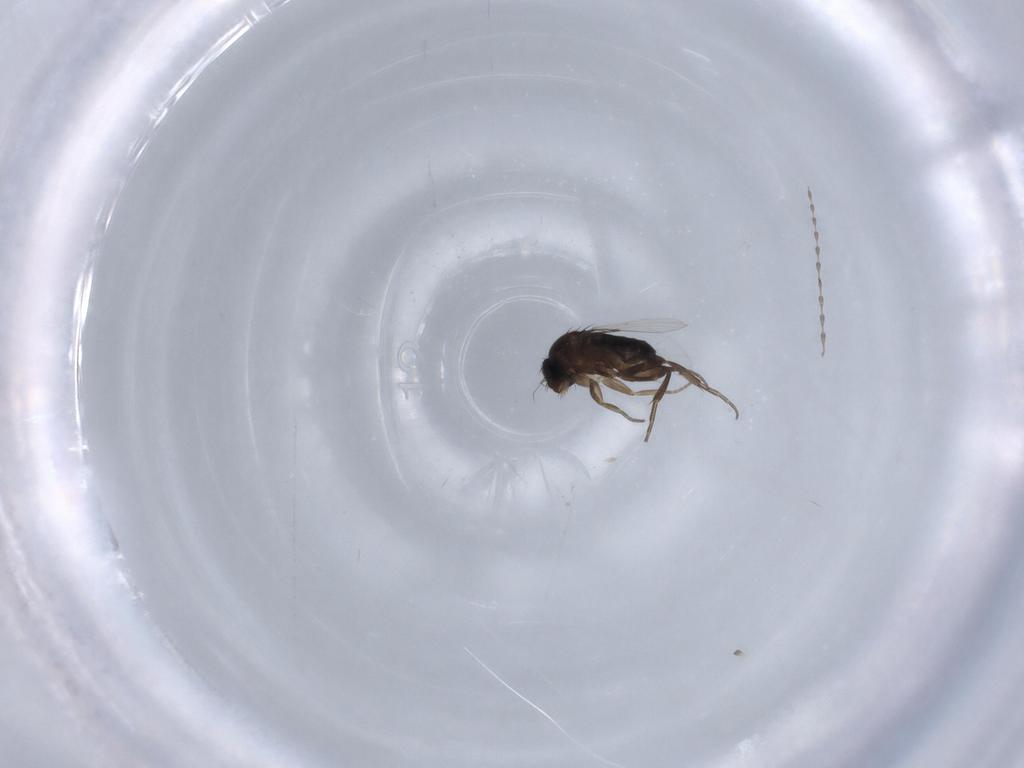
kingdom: Animalia
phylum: Arthropoda
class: Insecta
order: Diptera
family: Phoridae
